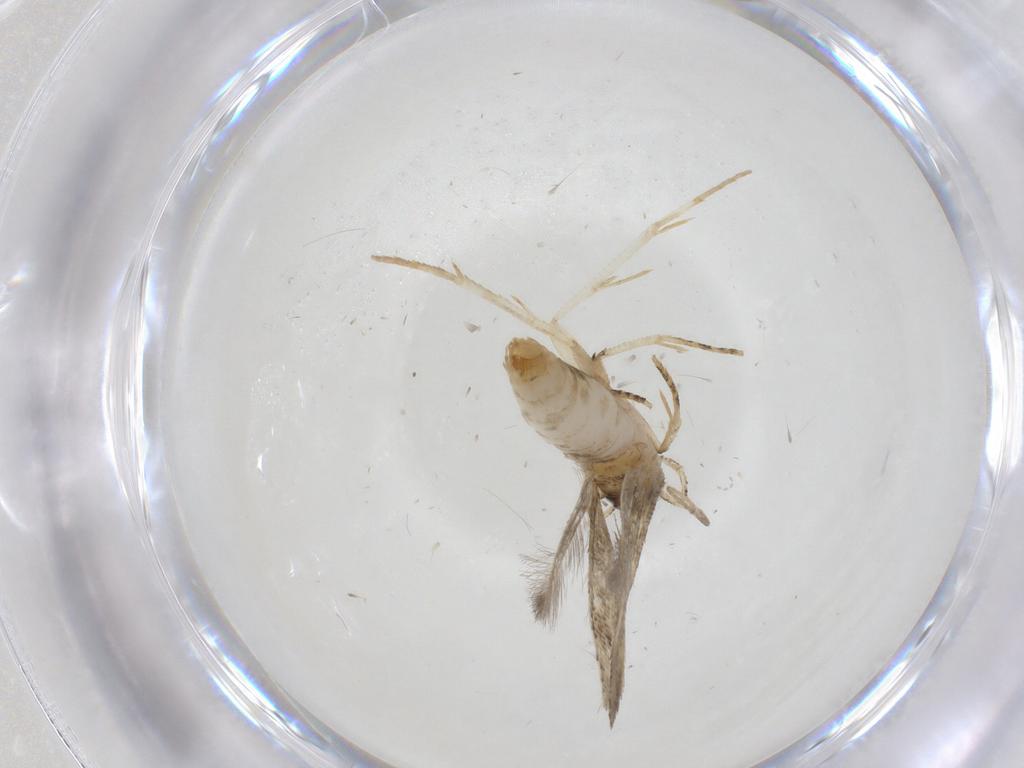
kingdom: Animalia
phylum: Arthropoda
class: Insecta
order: Lepidoptera
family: Gelechiidae
